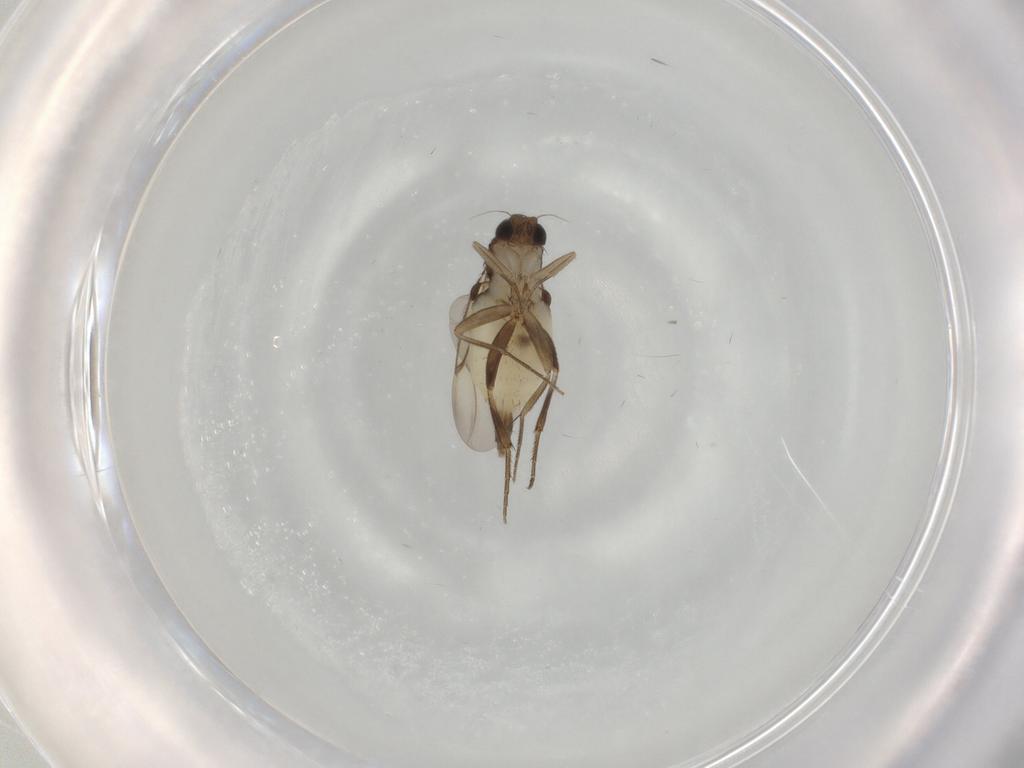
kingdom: Animalia
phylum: Arthropoda
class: Insecta
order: Diptera
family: Phoridae
